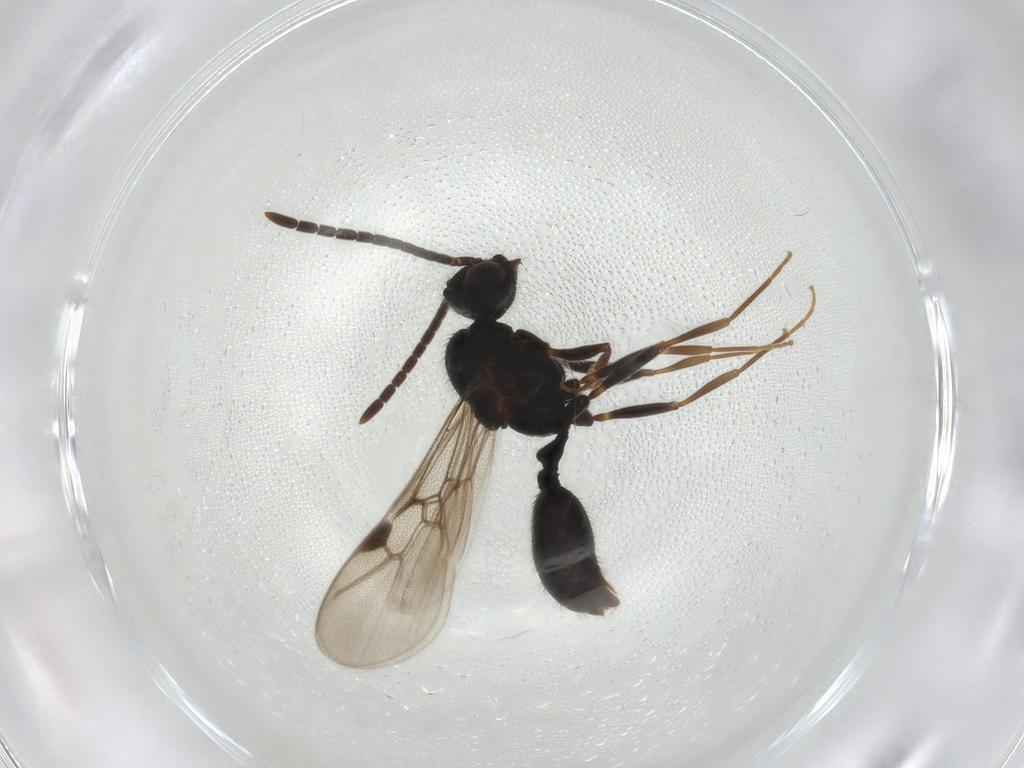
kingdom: Animalia
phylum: Arthropoda
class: Insecta
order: Hymenoptera
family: Formicidae
